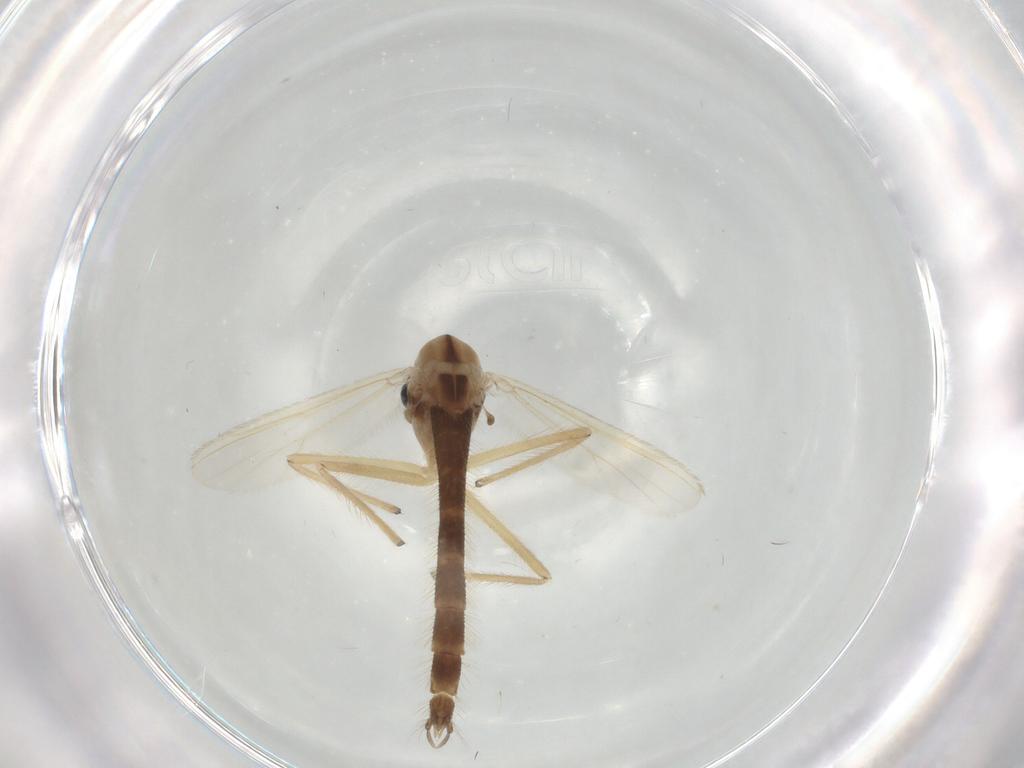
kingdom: Animalia
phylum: Arthropoda
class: Insecta
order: Diptera
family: Chironomidae
